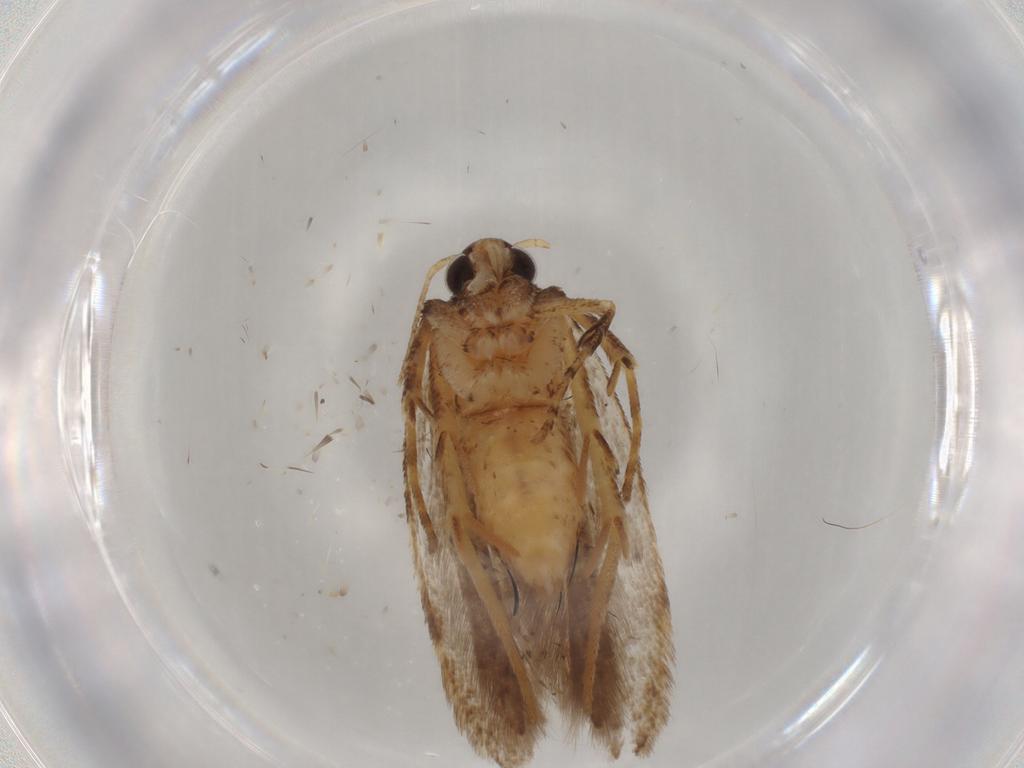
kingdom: Animalia
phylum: Arthropoda
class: Insecta
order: Lepidoptera
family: Gelechiidae
